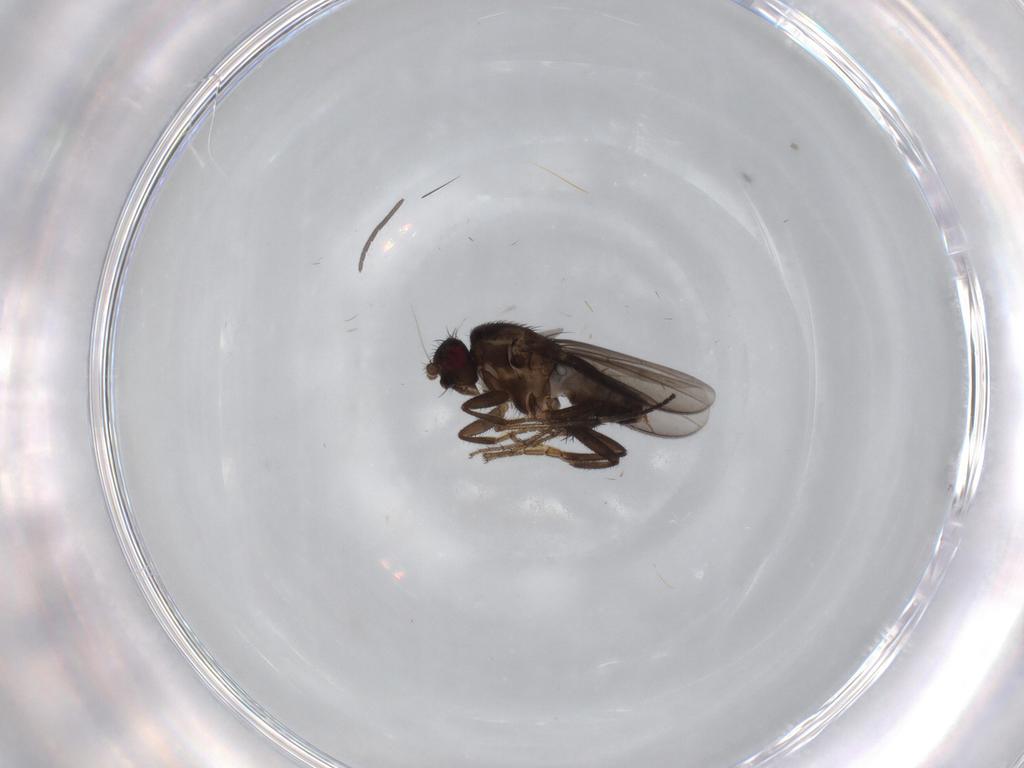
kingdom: Animalia
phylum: Arthropoda
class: Insecta
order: Diptera
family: Sphaeroceridae
